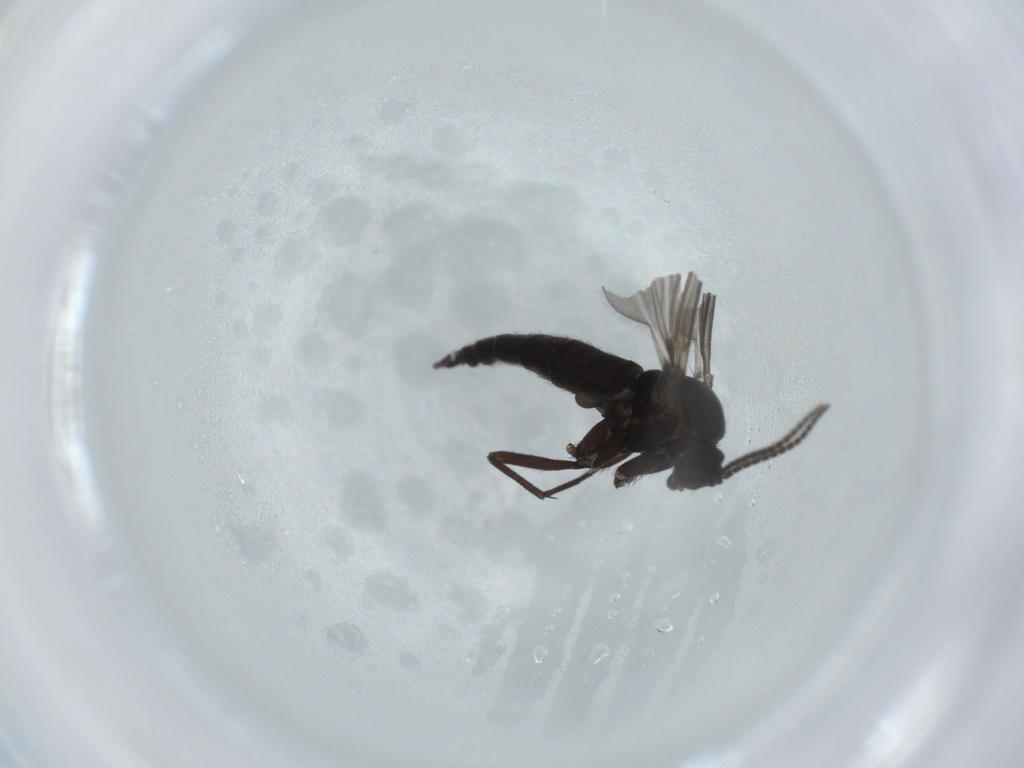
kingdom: Animalia
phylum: Arthropoda
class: Insecta
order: Diptera
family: Sciaridae
